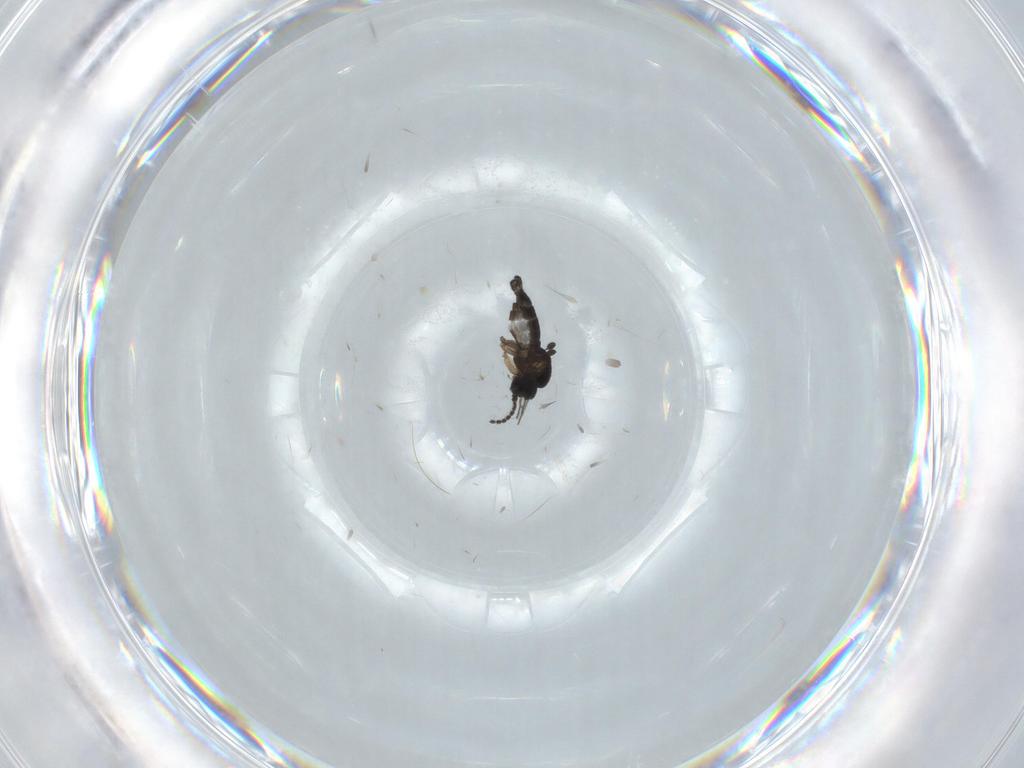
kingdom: Animalia
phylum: Arthropoda
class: Insecta
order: Diptera
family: Sciaridae
